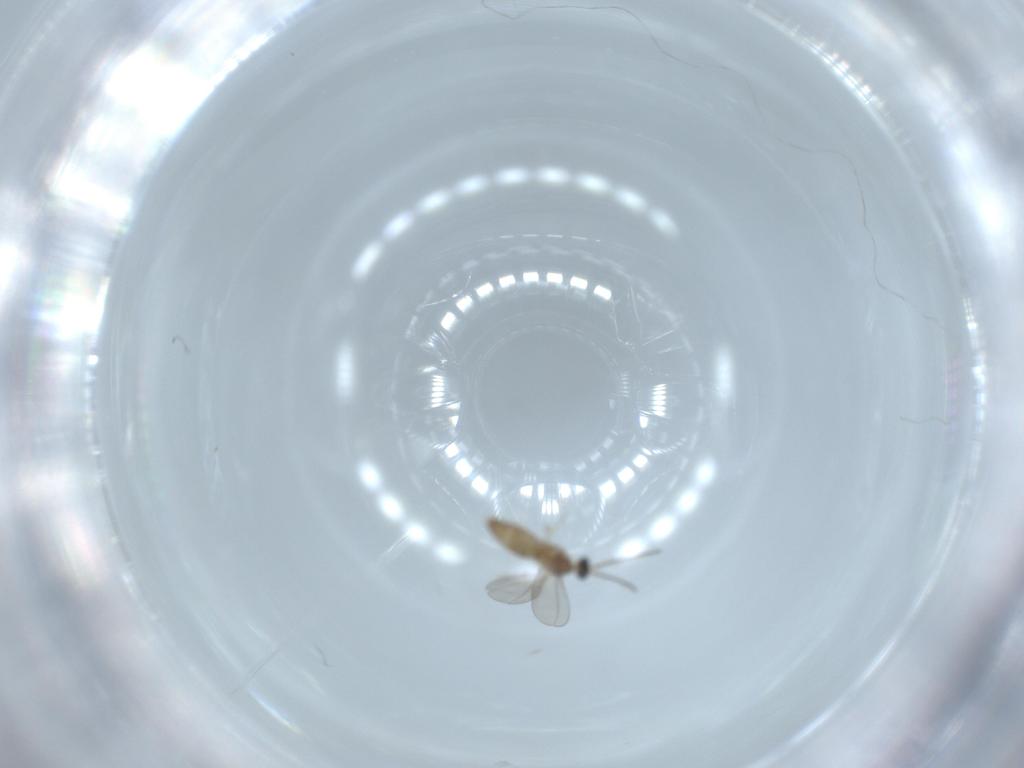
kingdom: Animalia
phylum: Arthropoda
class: Insecta
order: Diptera
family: Cecidomyiidae
